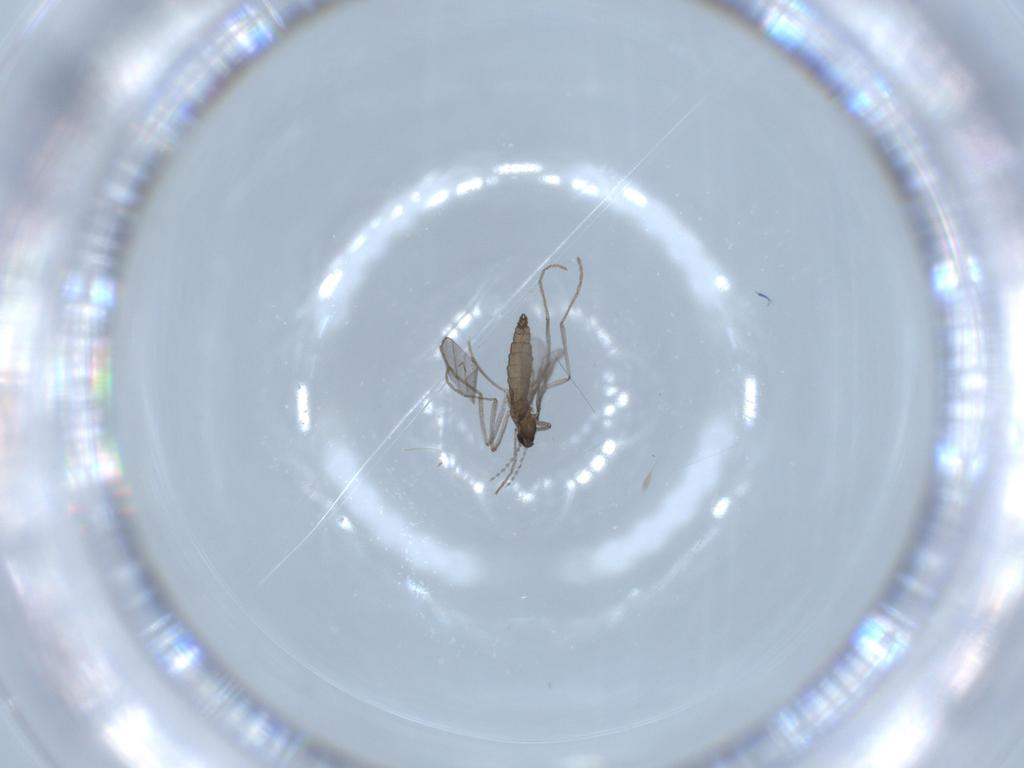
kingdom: Animalia
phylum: Arthropoda
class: Insecta
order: Diptera
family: Cecidomyiidae
